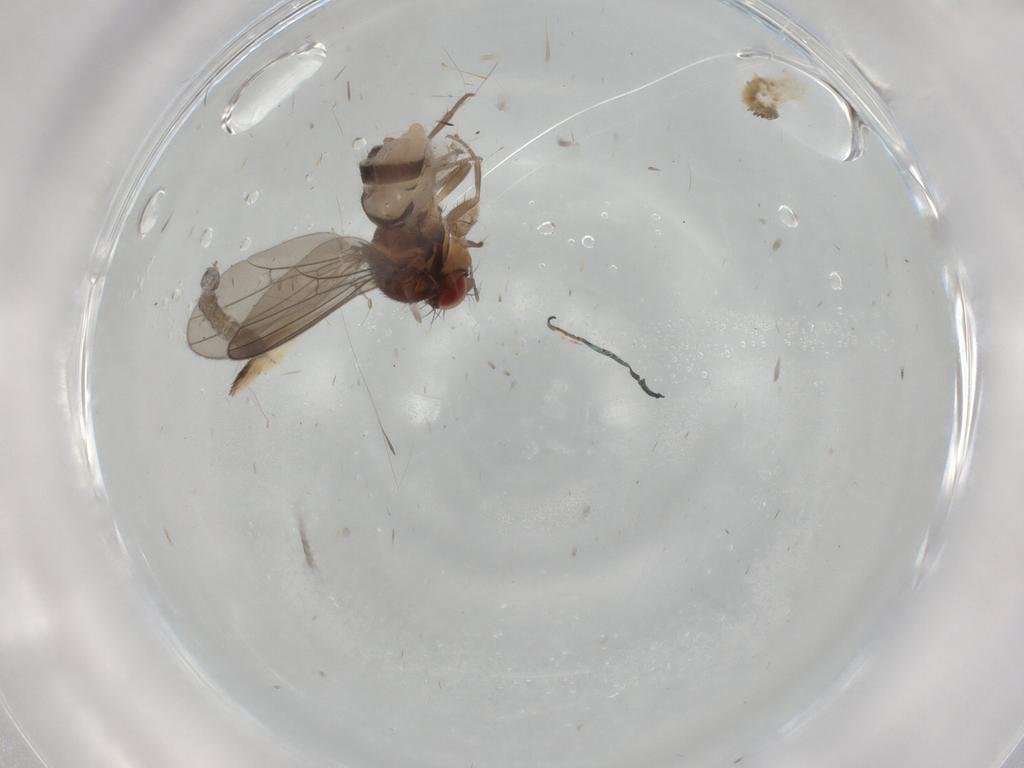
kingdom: Animalia
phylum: Arthropoda
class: Insecta
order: Diptera
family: Drosophilidae
